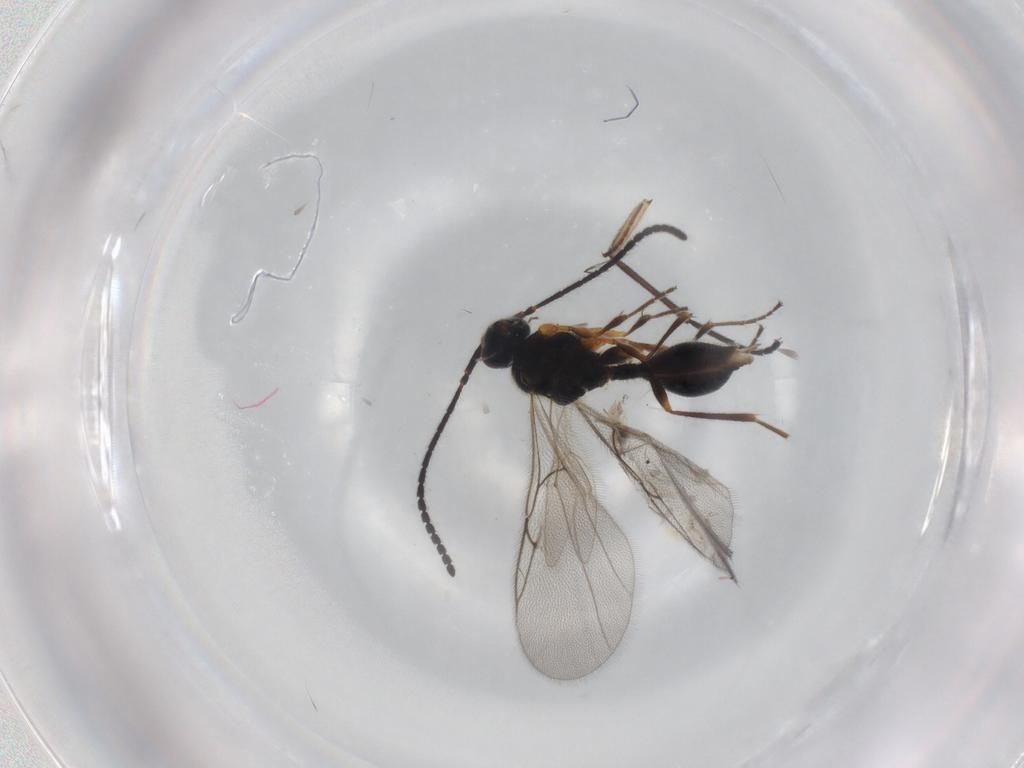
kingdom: Animalia
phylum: Arthropoda
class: Insecta
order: Hymenoptera
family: Diapriidae
